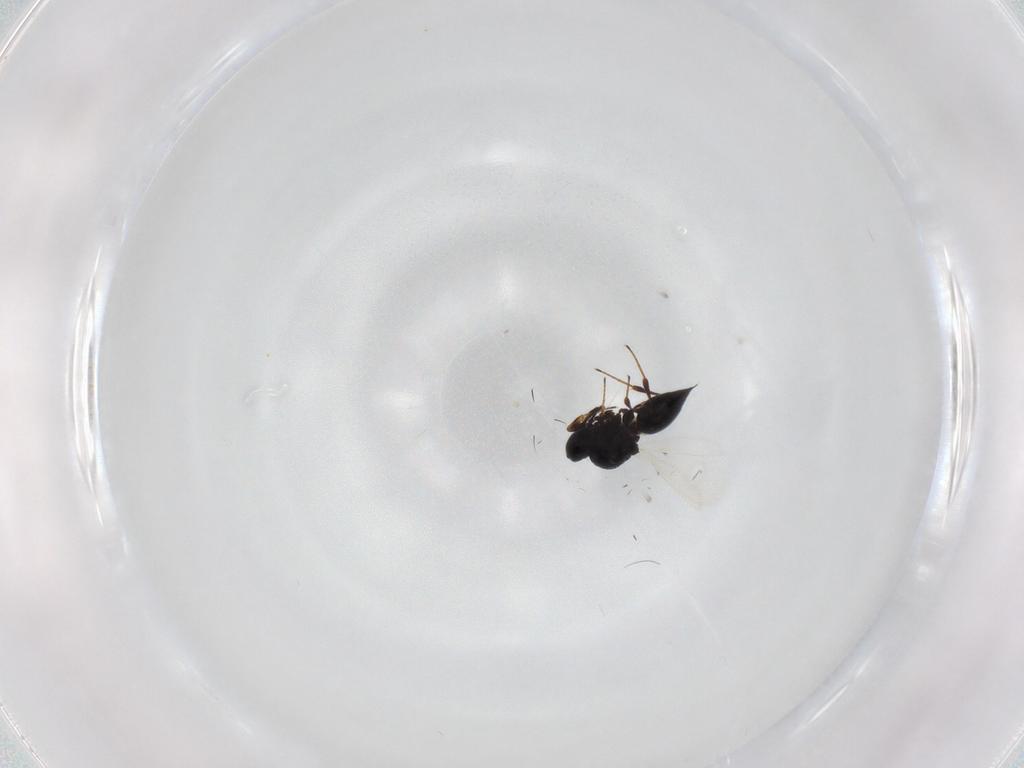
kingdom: Animalia
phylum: Arthropoda
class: Insecta
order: Hymenoptera
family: Platygastridae
